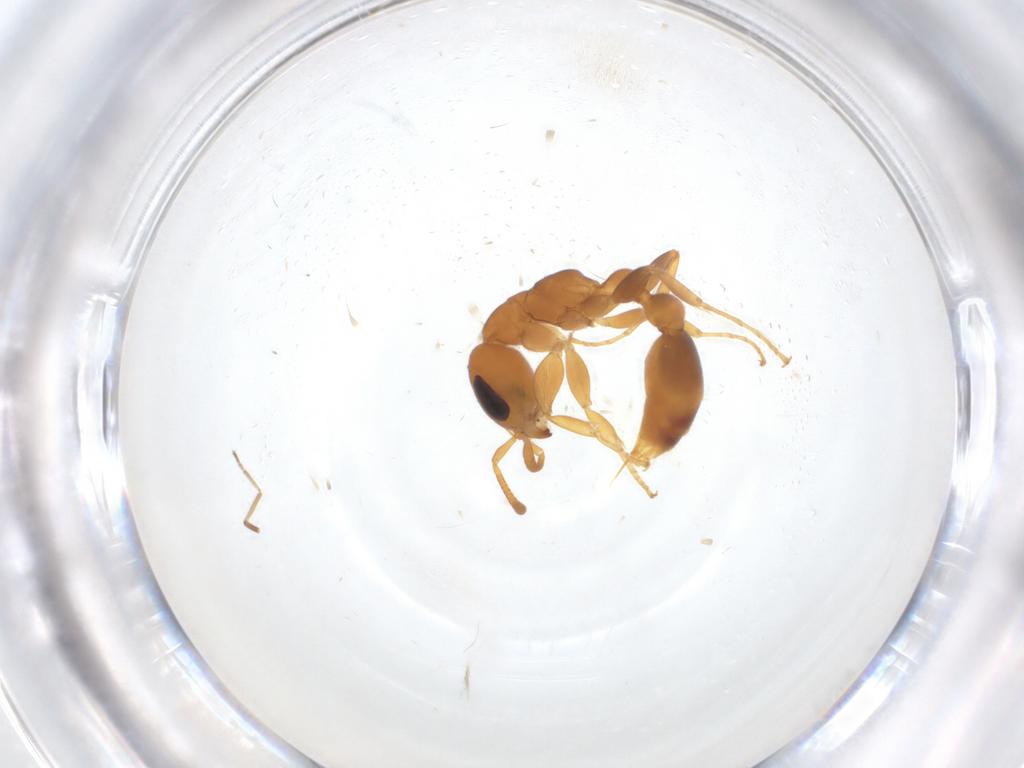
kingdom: Animalia
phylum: Arthropoda
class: Insecta
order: Hymenoptera
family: Formicidae
